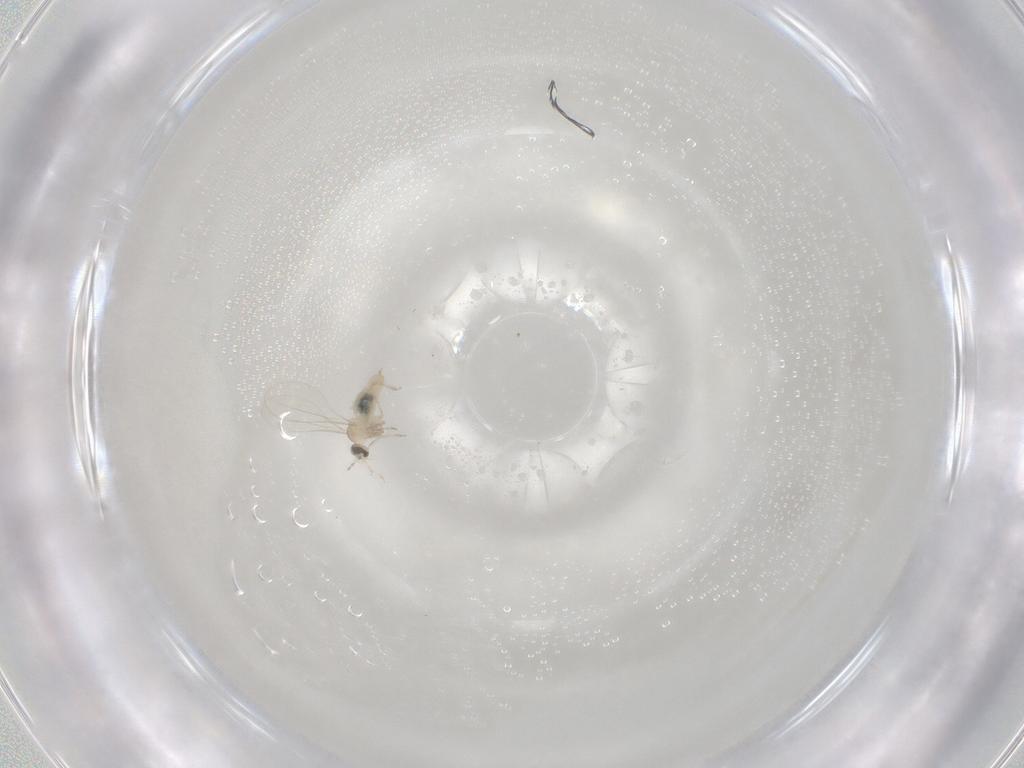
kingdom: Animalia
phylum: Arthropoda
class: Insecta
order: Diptera
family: Cecidomyiidae
